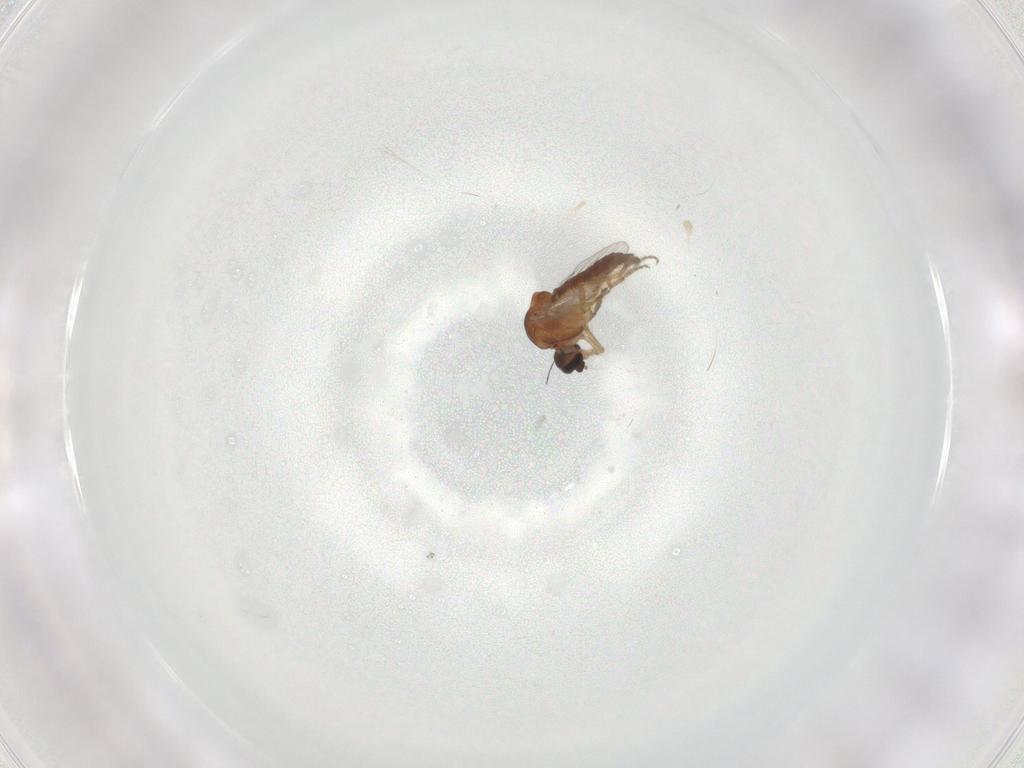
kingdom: Animalia
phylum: Arthropoda
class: Insecta
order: Diptera
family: Ceratopogonidae
